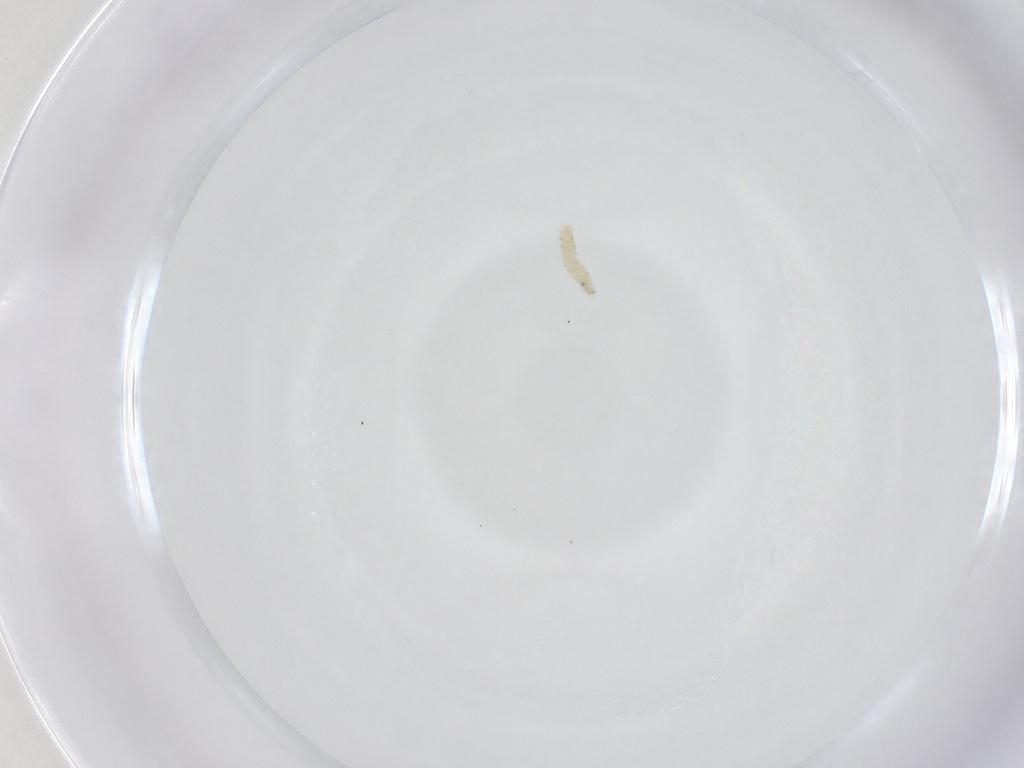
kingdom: Animalia
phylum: Arthropoda
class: Insecta
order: Diptera
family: Sarcophagidae
